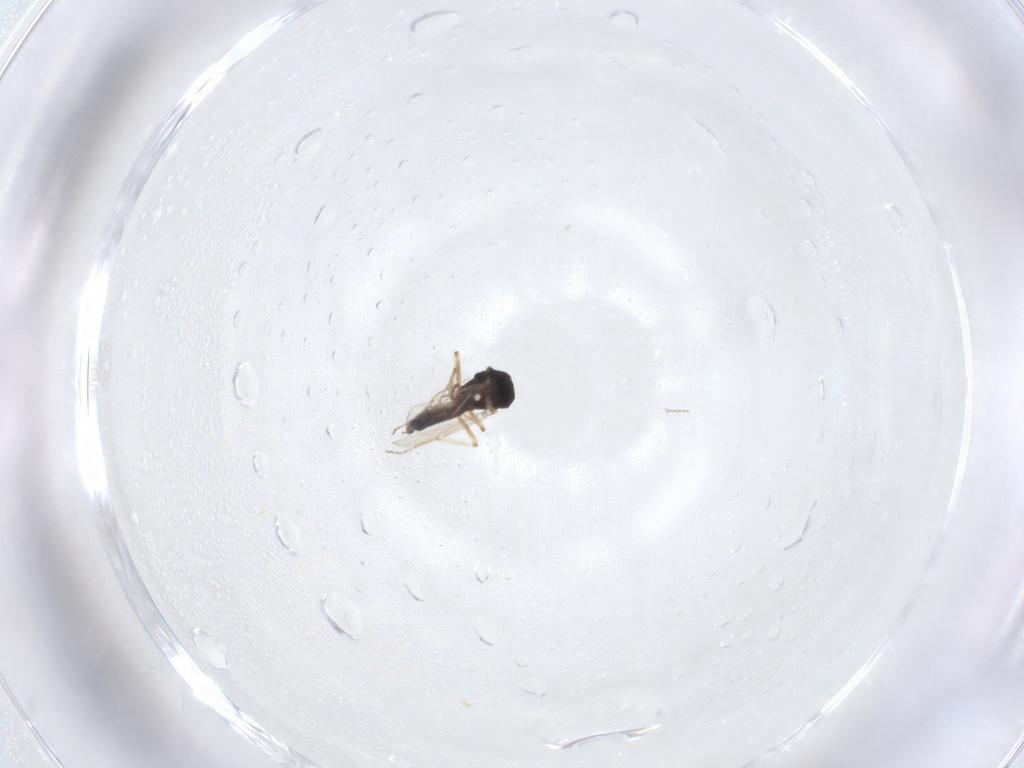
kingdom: Animalia
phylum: Arthropoda
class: Insecta
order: Diptera
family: Ceratopogonidae
